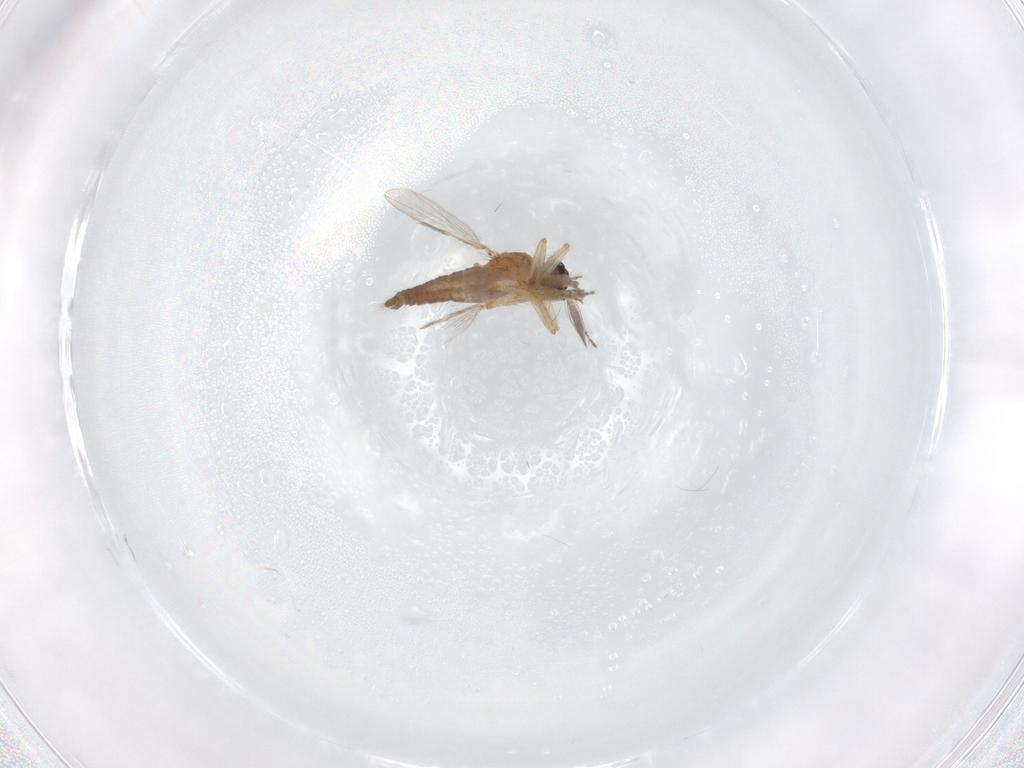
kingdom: Animalia
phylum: Arthropoda
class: Insecta
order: Diptera
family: Ceratopogonidae
